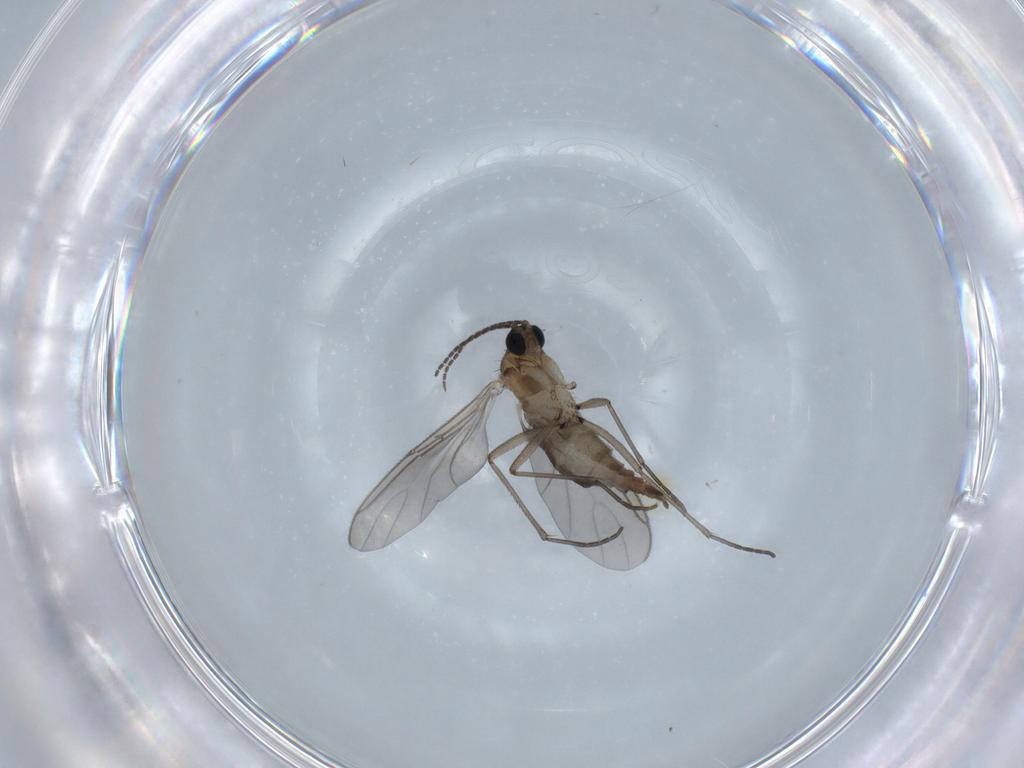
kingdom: Animalia
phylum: Arthropoda
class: Insecta
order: Diptera
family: Sciaridae
